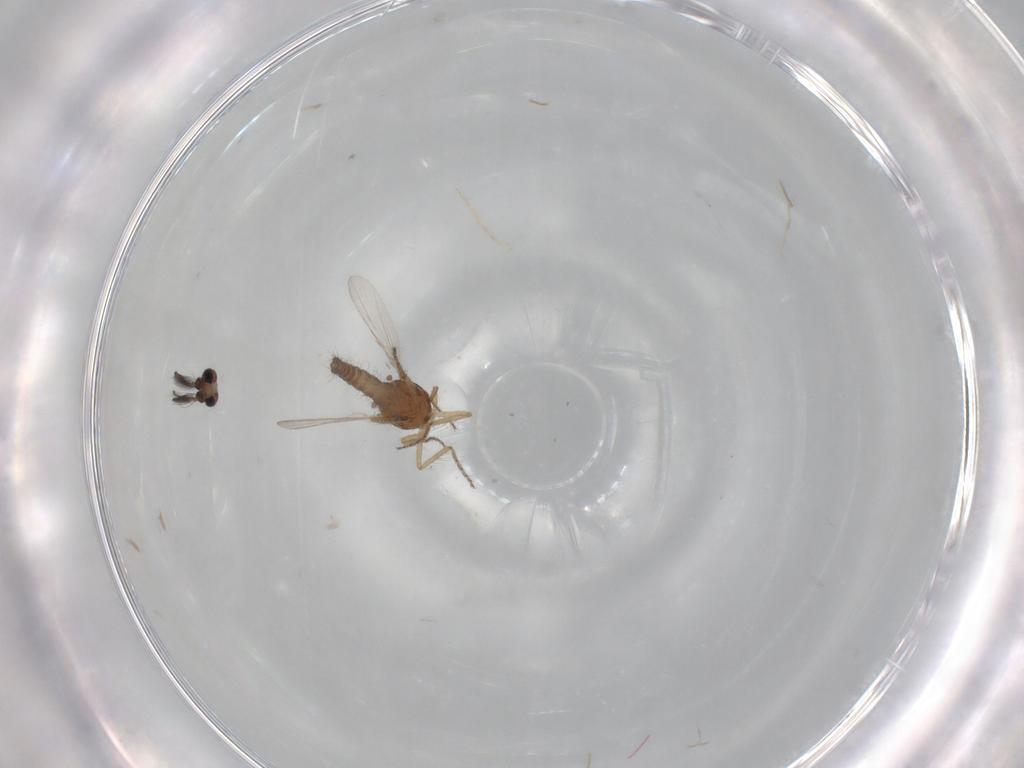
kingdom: Animalia
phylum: Arthropoda
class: Insecta
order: Diptera
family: Ceratopogonidae
